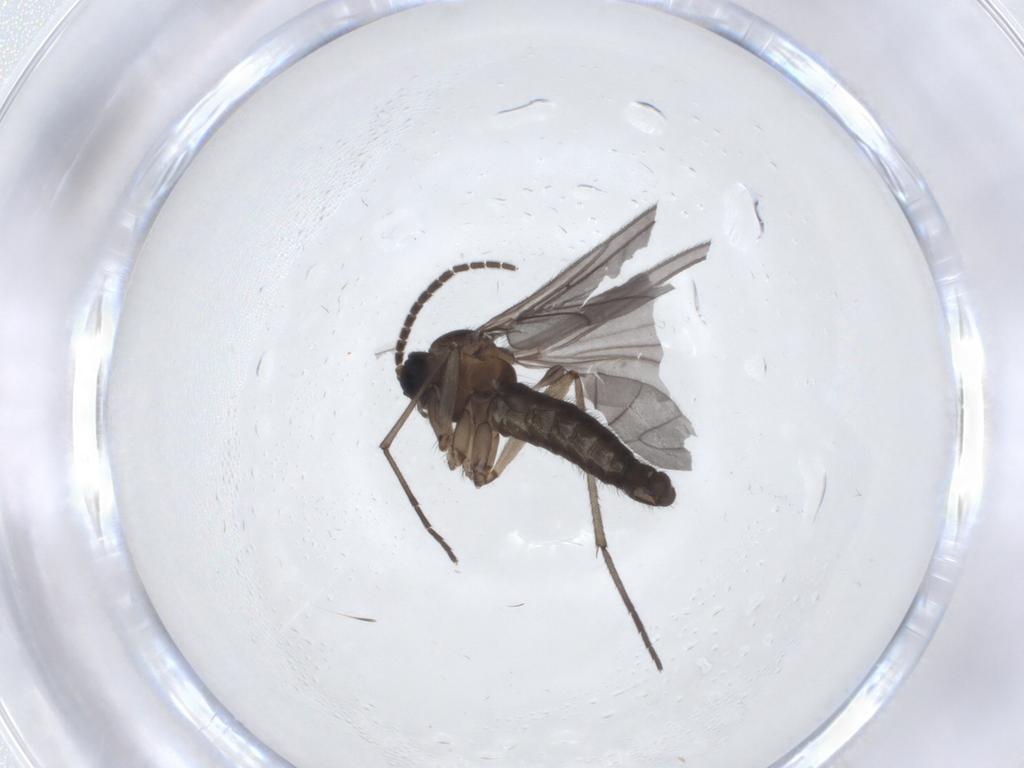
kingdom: Animalia
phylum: Arthropoda
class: Insecta
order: Diptera
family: Sciaridae
